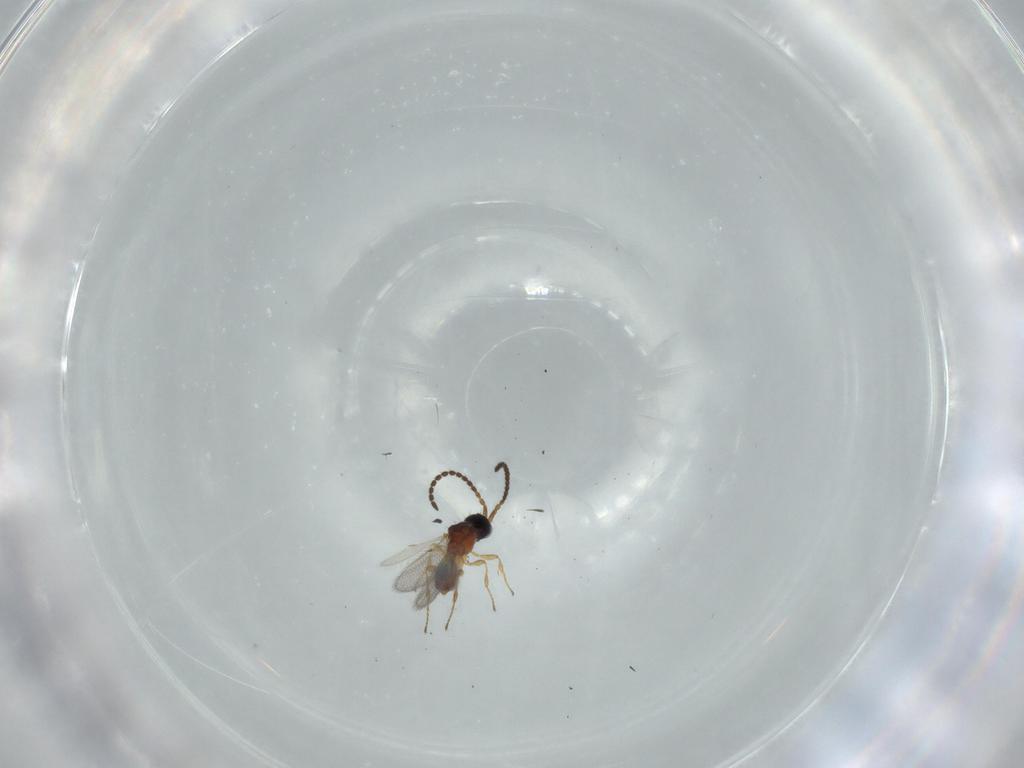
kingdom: Animalia
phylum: Arthropoda
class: Insecta
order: Hymenoptera
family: Diapriidae
